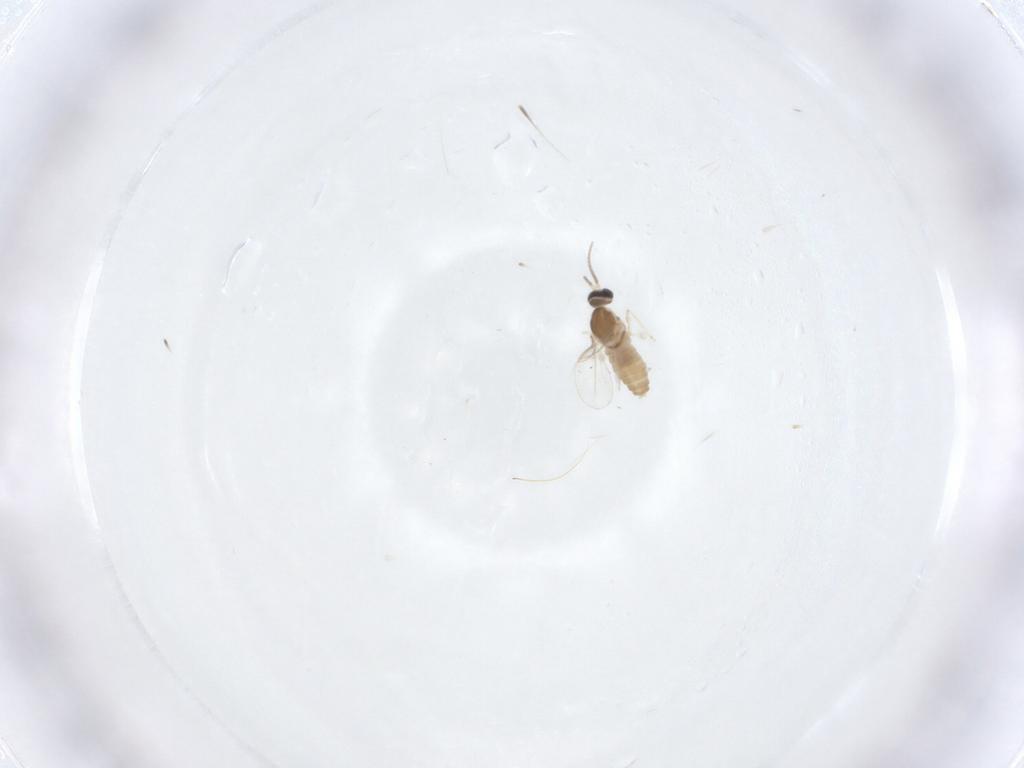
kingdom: Animalia
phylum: Arthropoda
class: Insecta
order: Diptera
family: Cecidomyiidae
